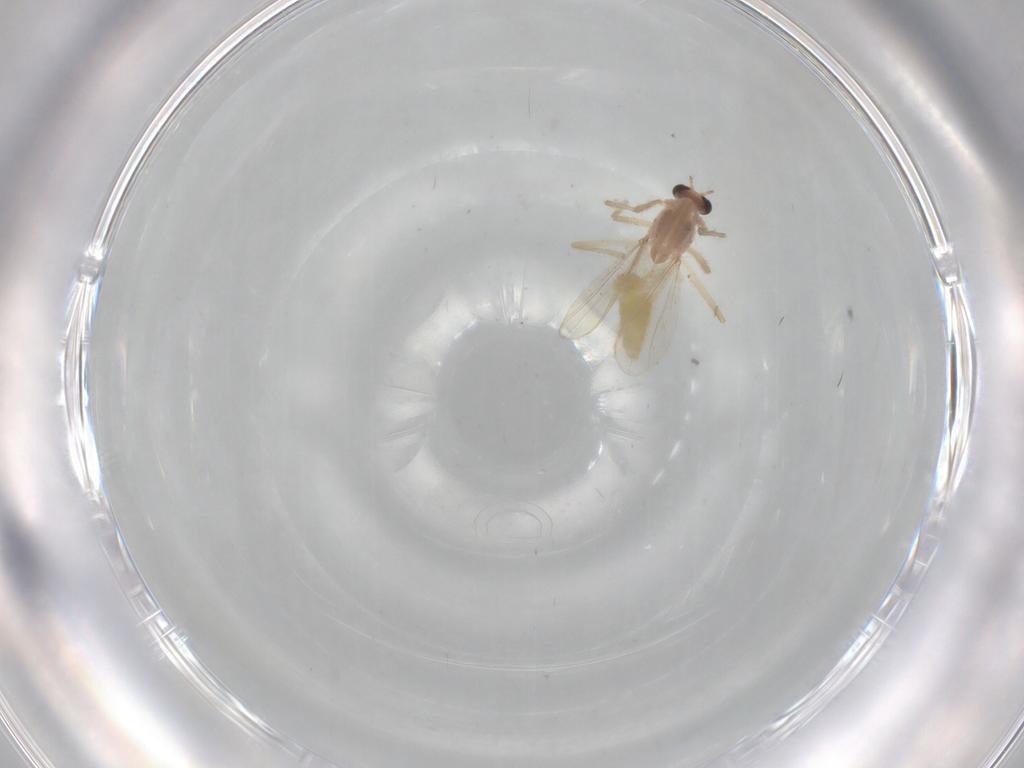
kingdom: Animalia
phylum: Arthropoda
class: Insecta
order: Diptera
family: Chironomidae
